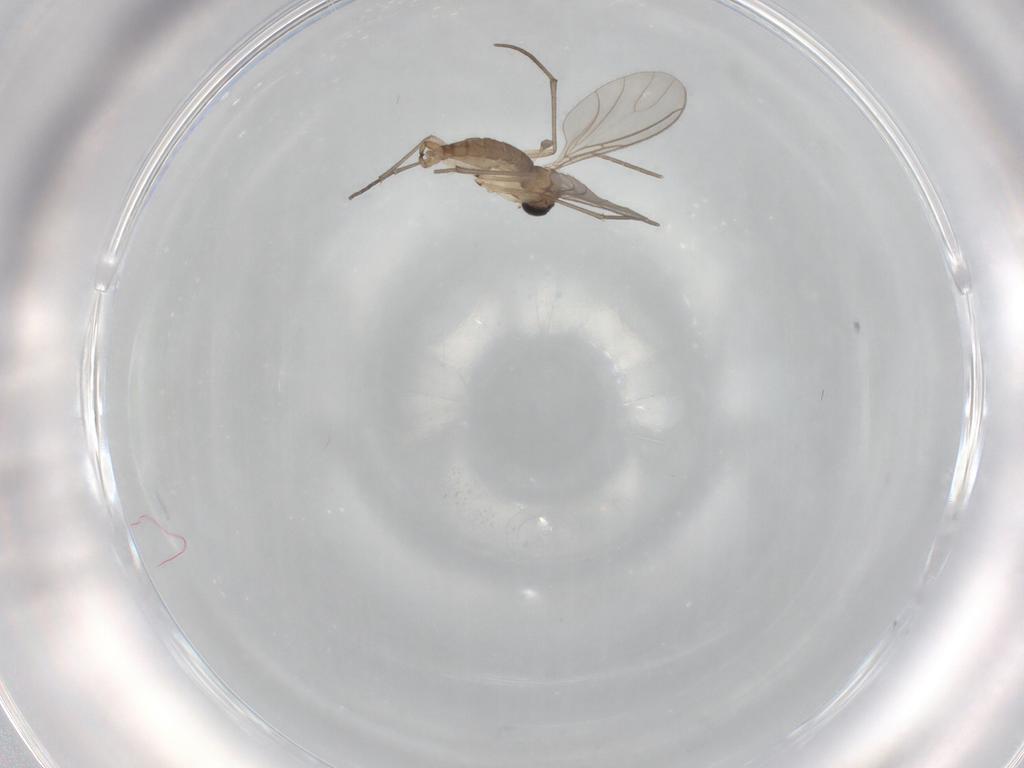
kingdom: Animalia
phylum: Arthropoda
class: Insecta
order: Diptera
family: Sciaridae
